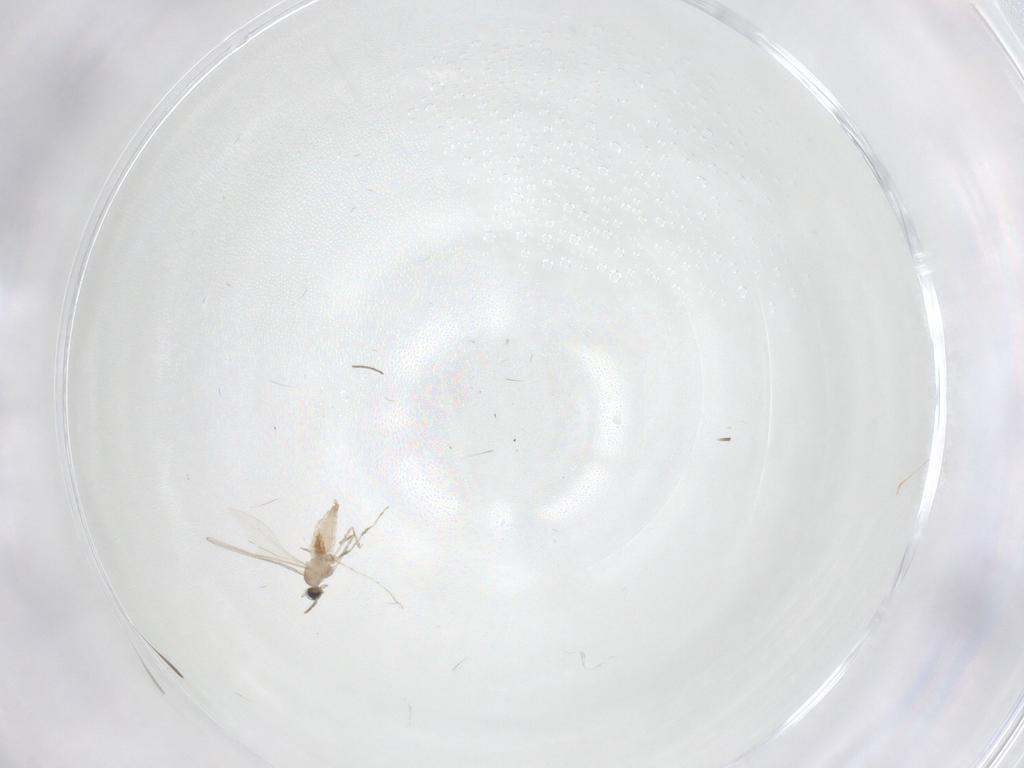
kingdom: Animalia
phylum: Arthropoda
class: Insecta
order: Diptera
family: Cecidomyiidae
